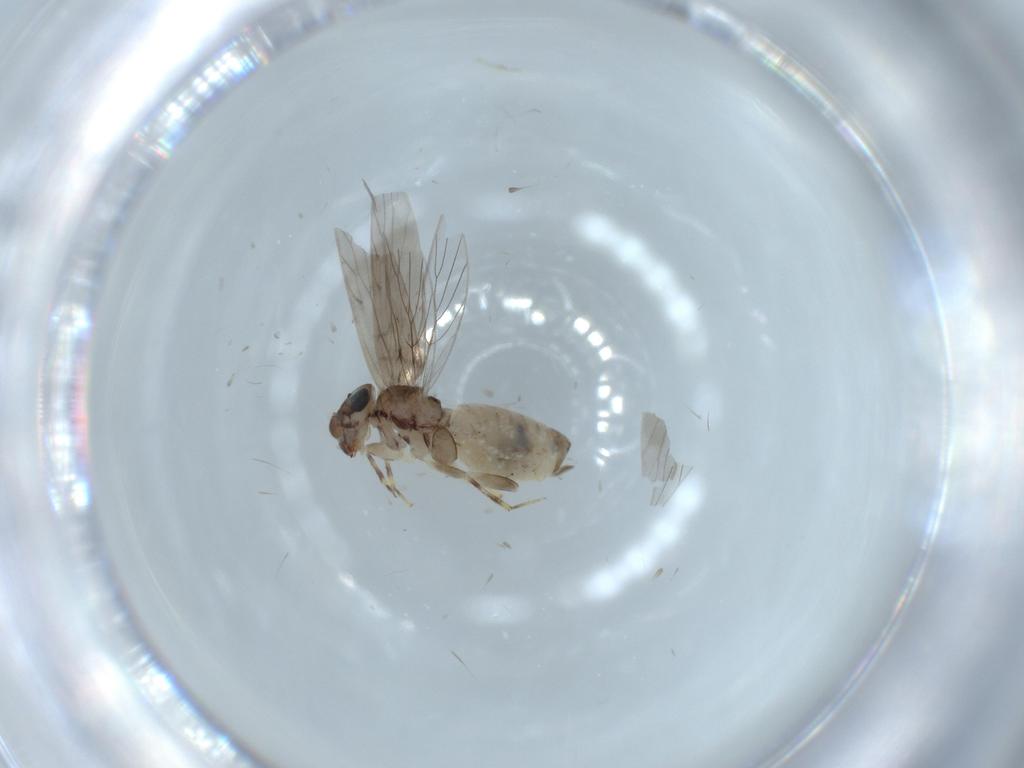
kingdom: Animalia
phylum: Arthropoda
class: Insecta
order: Psocodea
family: Lepidopsocidae
